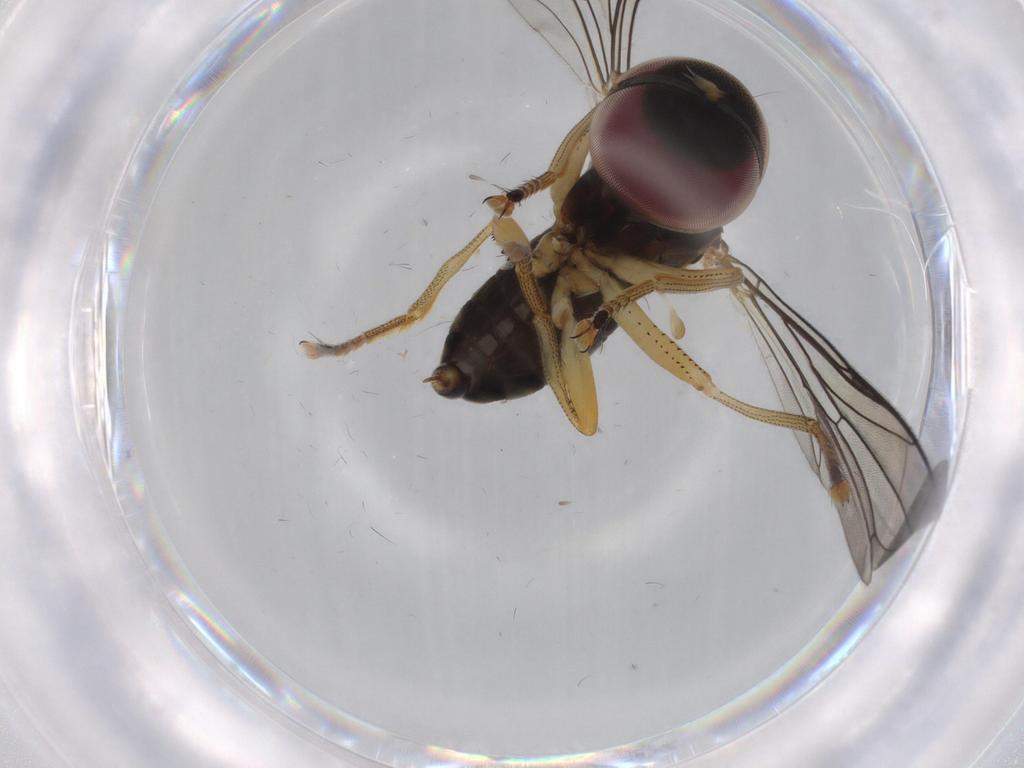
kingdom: Animalia
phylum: Arthropoda
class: Insecta
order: Diptera
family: Pipunculidae
